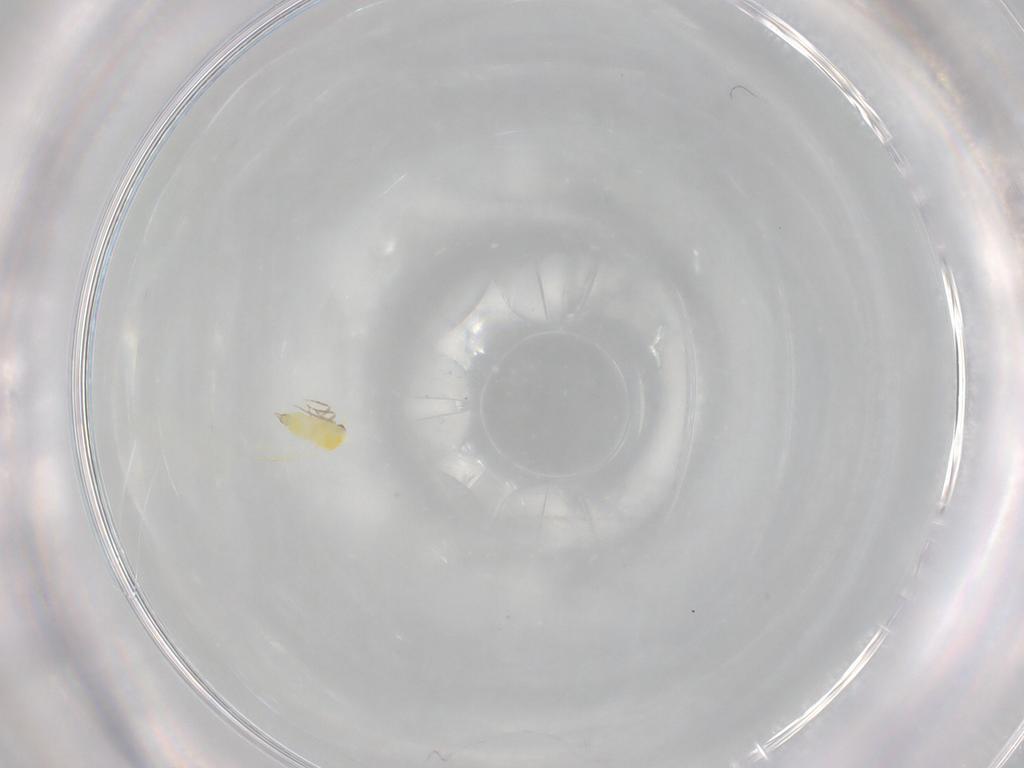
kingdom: Animalia
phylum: Arthropoda
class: Insecta
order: Hemiptera
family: Aleyrodidae
